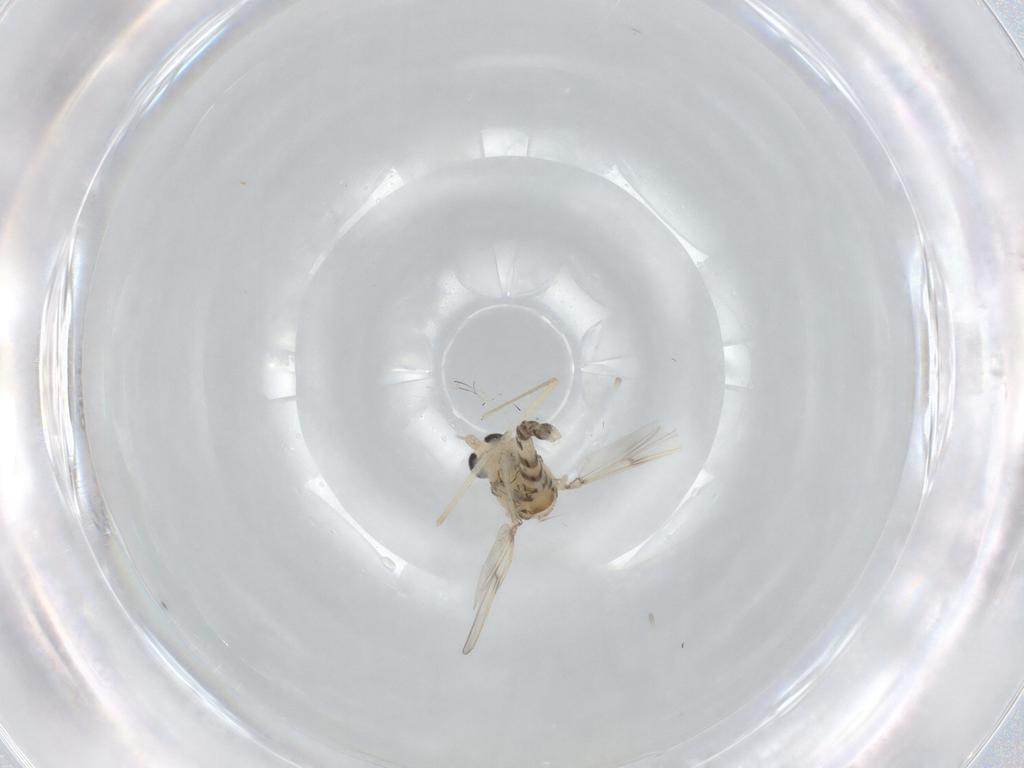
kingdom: Animalia
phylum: Arthropoda
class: Insecta
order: Diptera
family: Chironomidae
